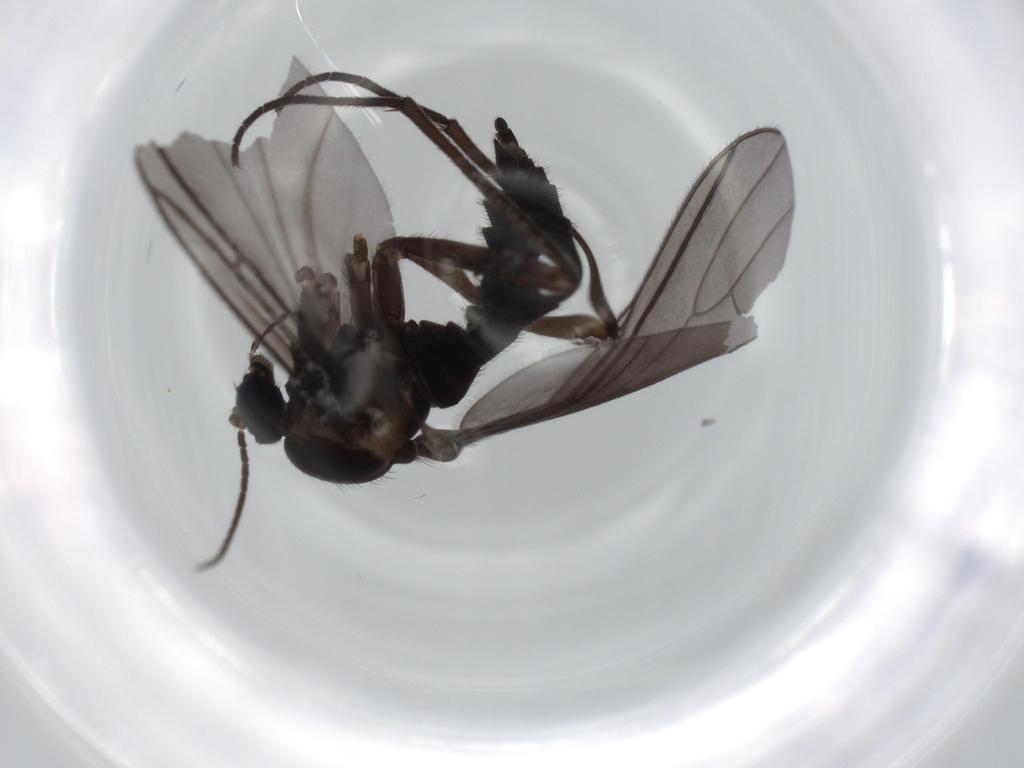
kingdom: Animalia
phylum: Arthropoda
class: Insecta
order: Diptera
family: Sciaridae
